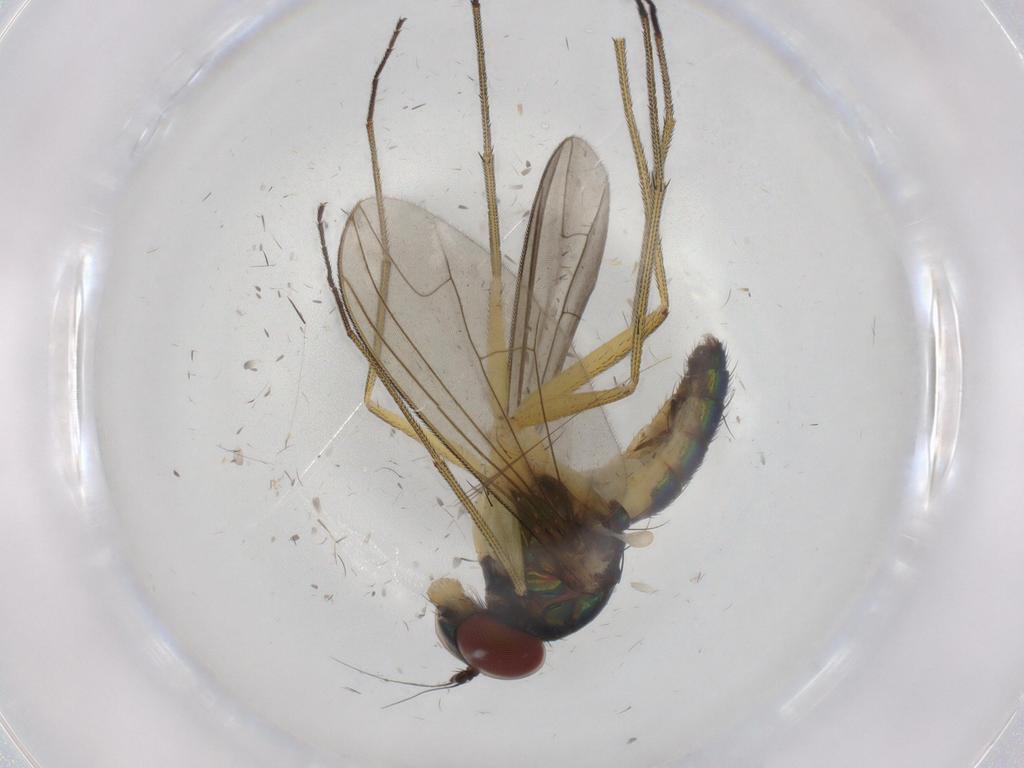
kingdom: Animalia
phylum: Arthropoda
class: Insecta
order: Diptera
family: Dolichopodidae
